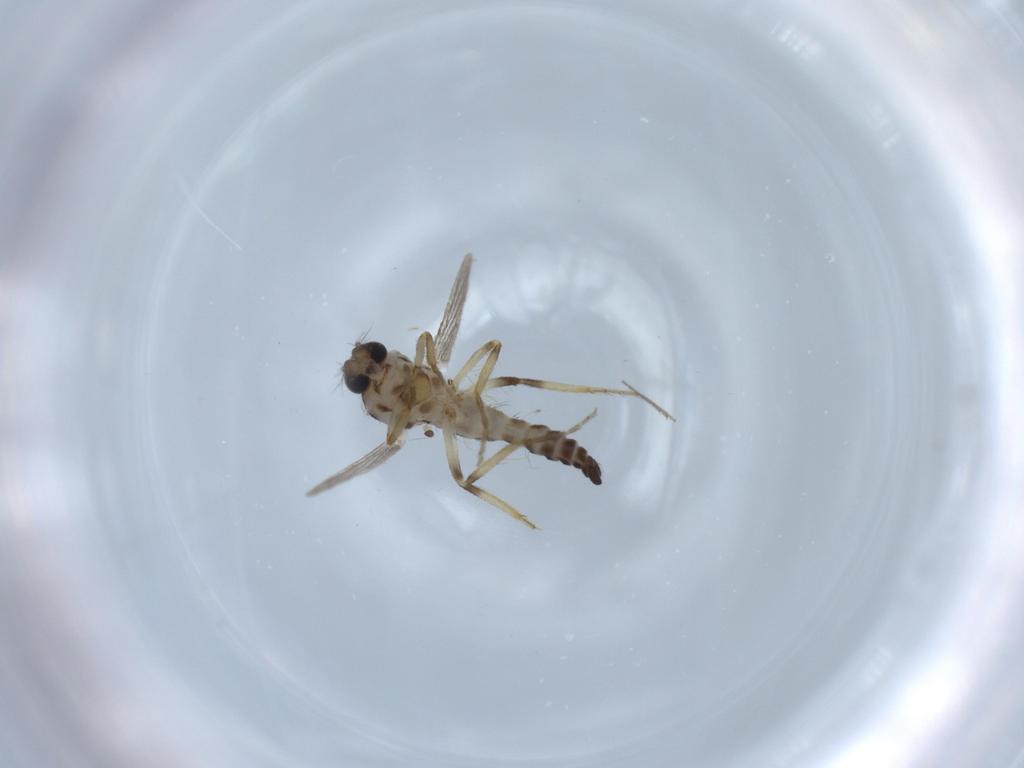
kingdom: Animalia
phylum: Arthropoda
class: Insecta
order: Diptera
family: Ceratopogonidae
